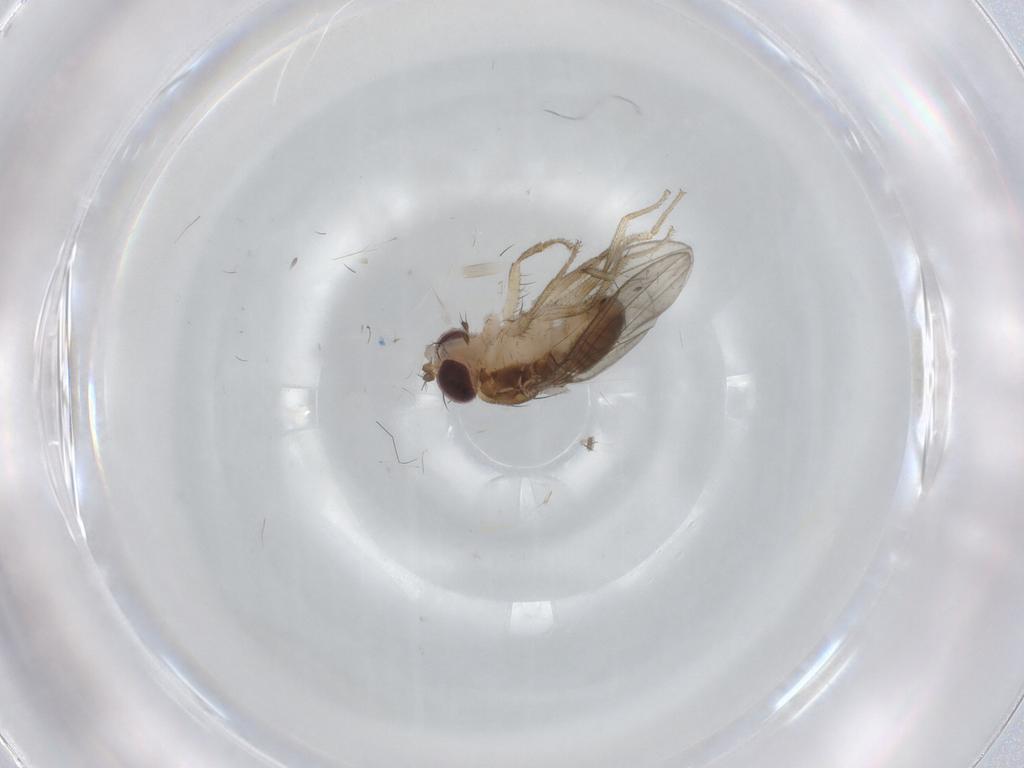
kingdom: Animalia
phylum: Arthropoda
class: Insecta
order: Diptera
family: Drosophilidae
